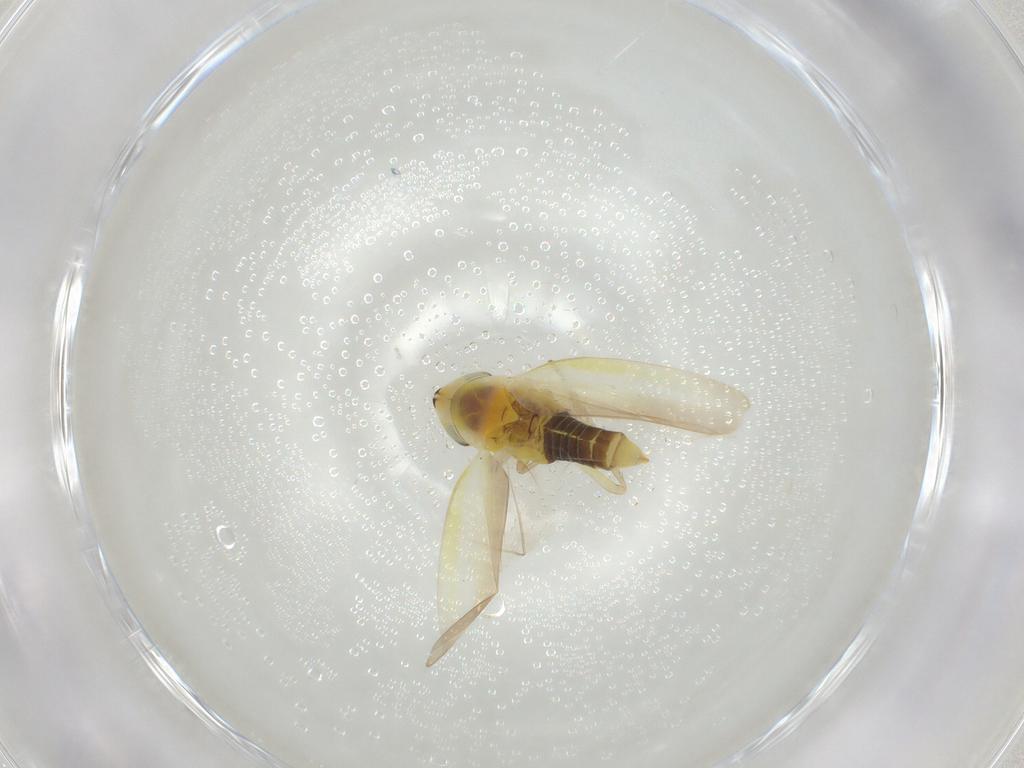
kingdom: Animalia
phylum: Arthropoda
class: Insecta
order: Hemiptera
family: Cicadellidae
